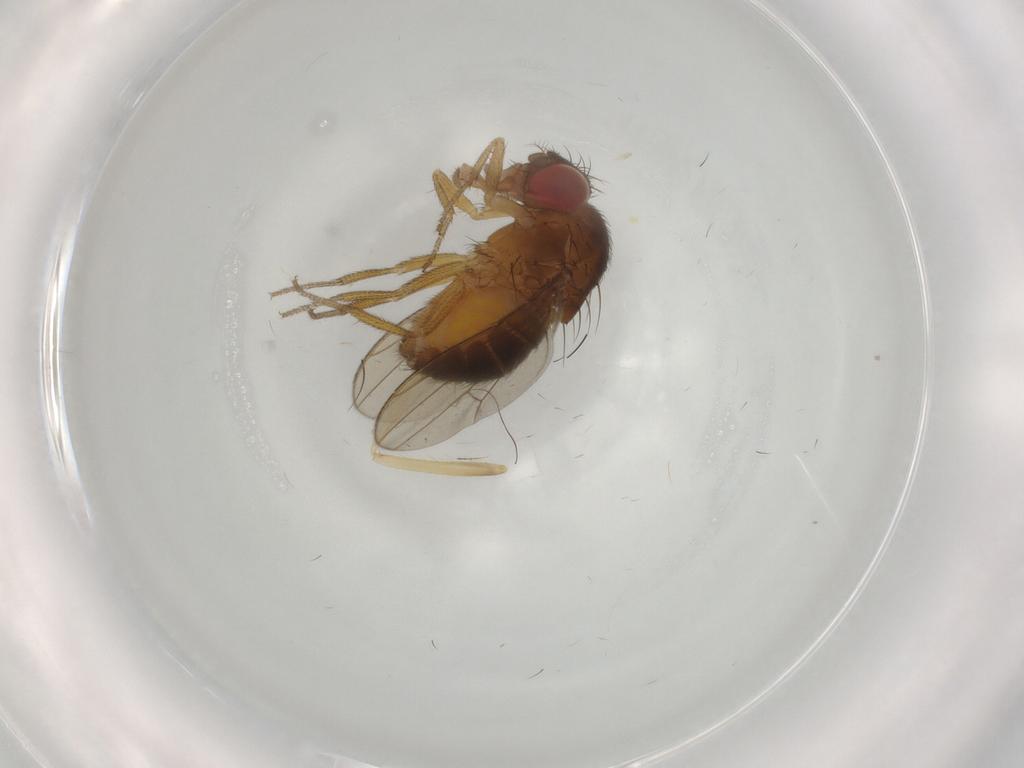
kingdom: Animalia
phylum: Arthropoda
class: Insecta
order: Diptera
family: Drosophilidae
